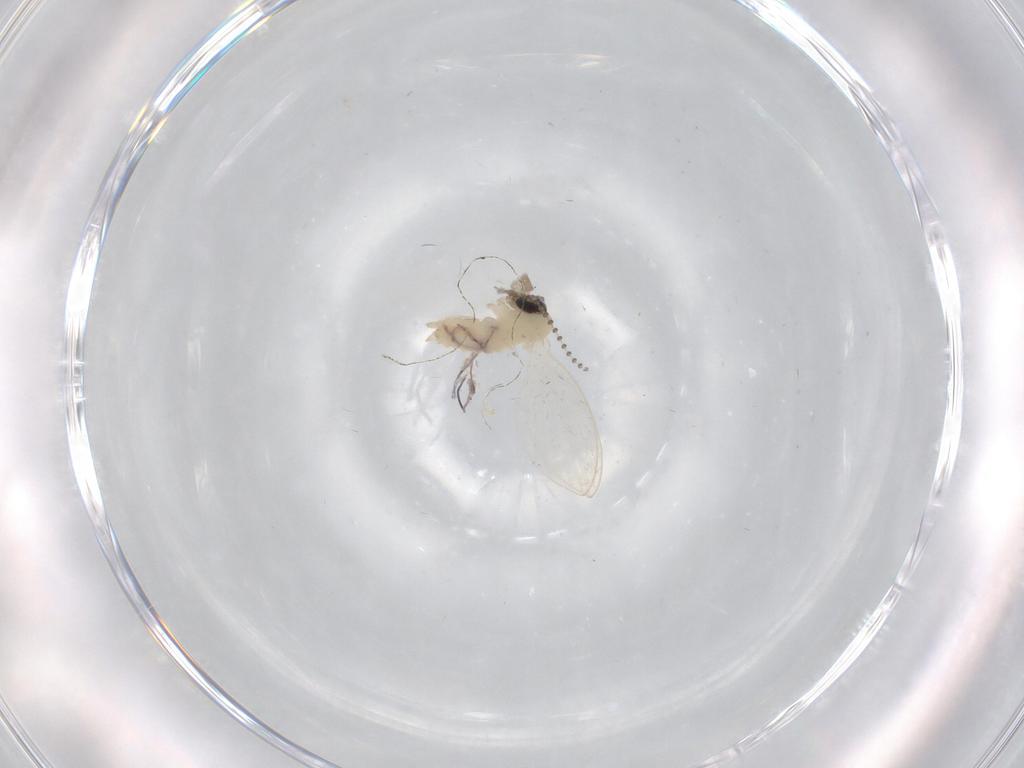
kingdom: Animalia
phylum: Arthropoda
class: Insecta
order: Diptera
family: Psychodidae
